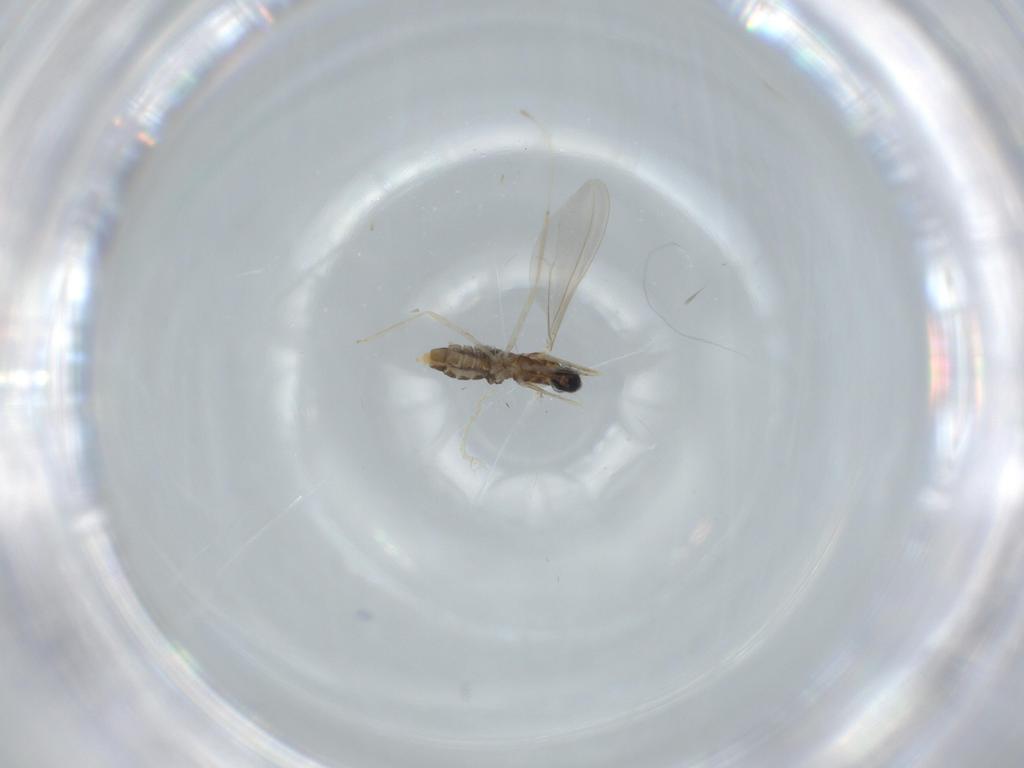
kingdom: Animalia
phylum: Arthropoda
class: Insecta
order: Diptera
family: Cecidomyiidae
